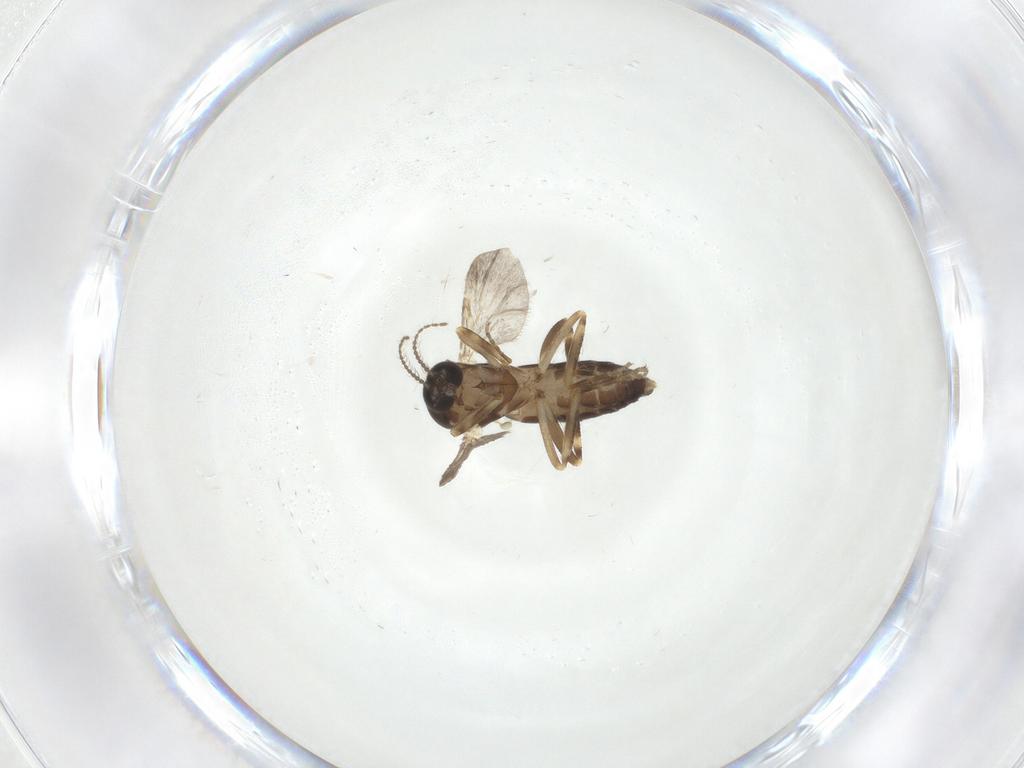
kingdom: Animalia
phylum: Arthropoda
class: Insecta
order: Diptera
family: Ceratopogonidae
